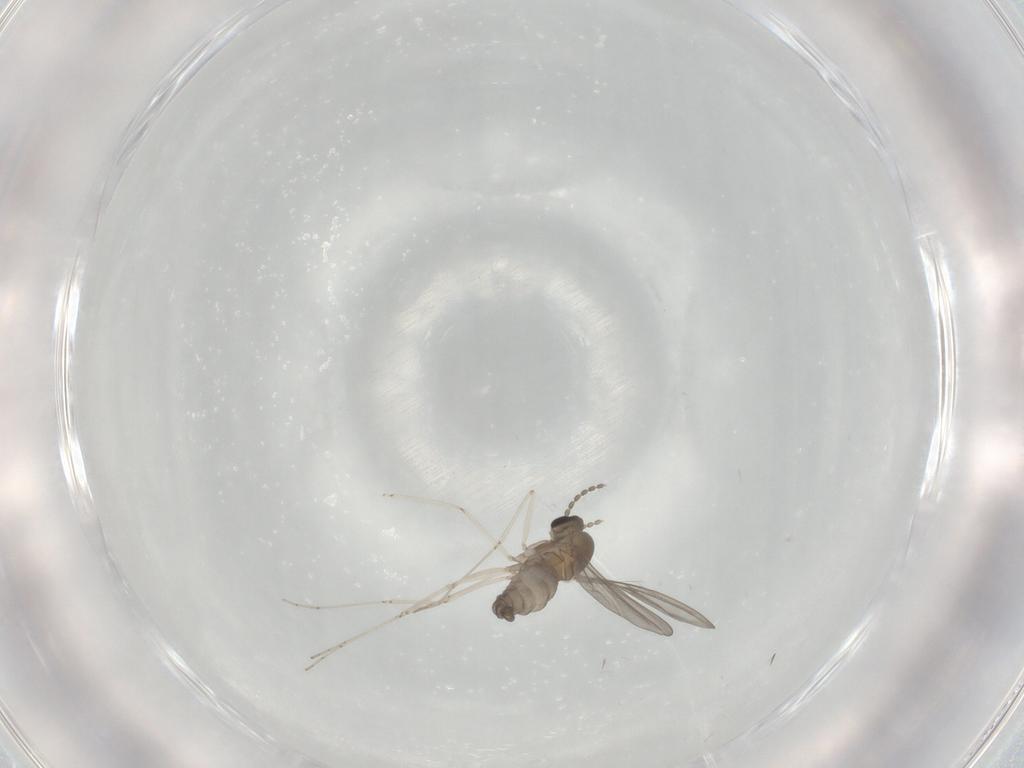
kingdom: Animalia
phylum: Arthropoda
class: Insecta
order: Diptera
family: Cecidomyiidae
